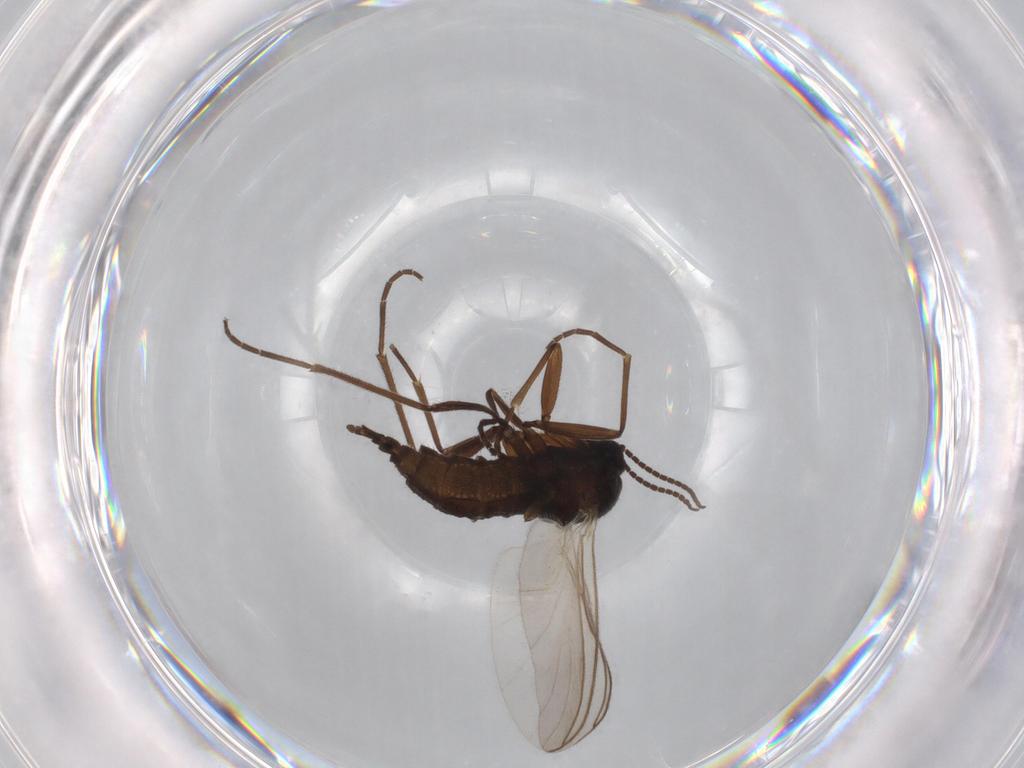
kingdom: Animalia
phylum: Arthropoda
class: Insecta
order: Diptera
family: Sciaridae
